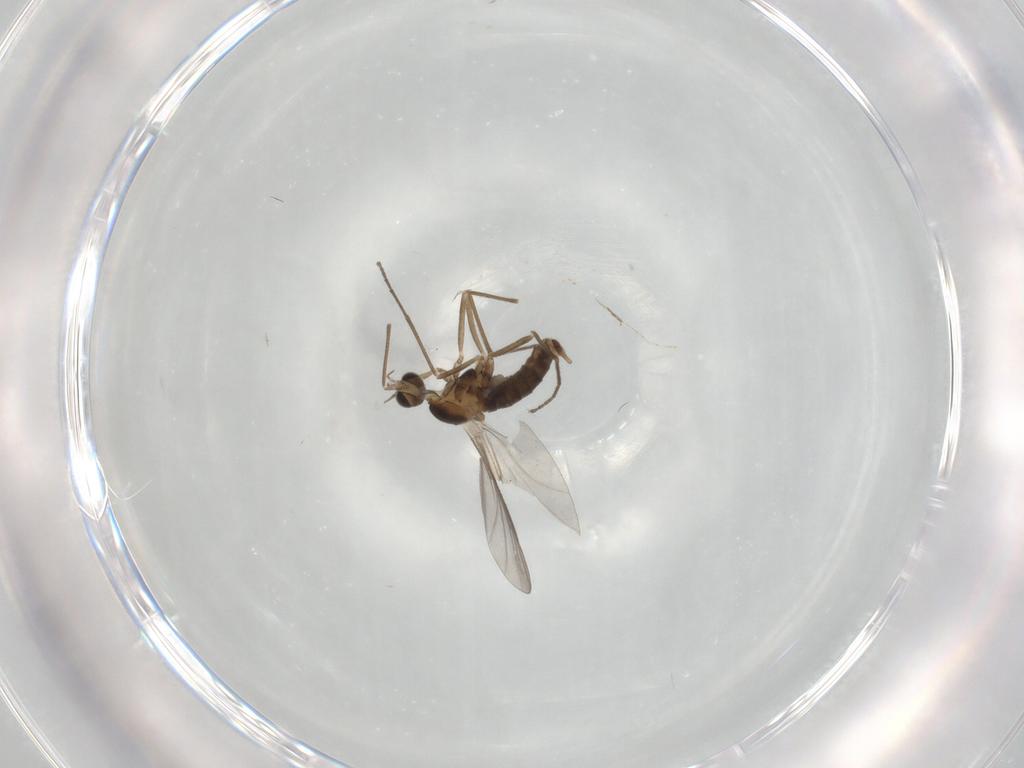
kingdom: Animalia
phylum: Arthropoda
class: Insecta
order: Diptera
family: Cecidomyiidae
